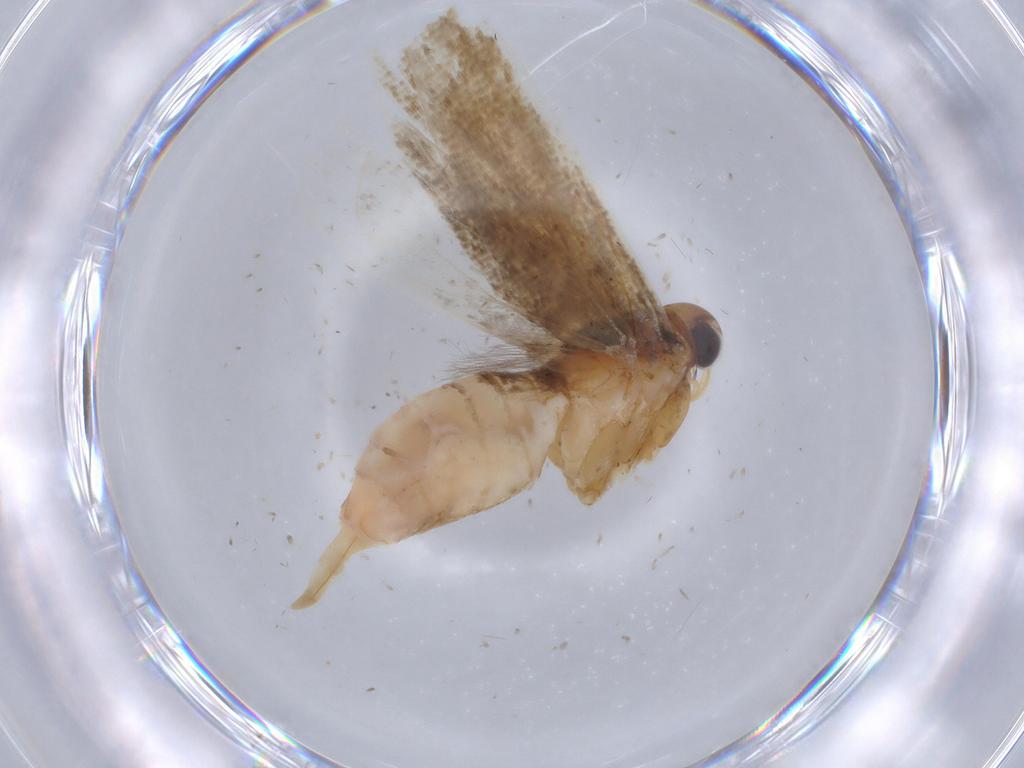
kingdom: Animalia
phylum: Arthropoda
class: Insecta
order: Lepidoptera
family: Gelechiidae
